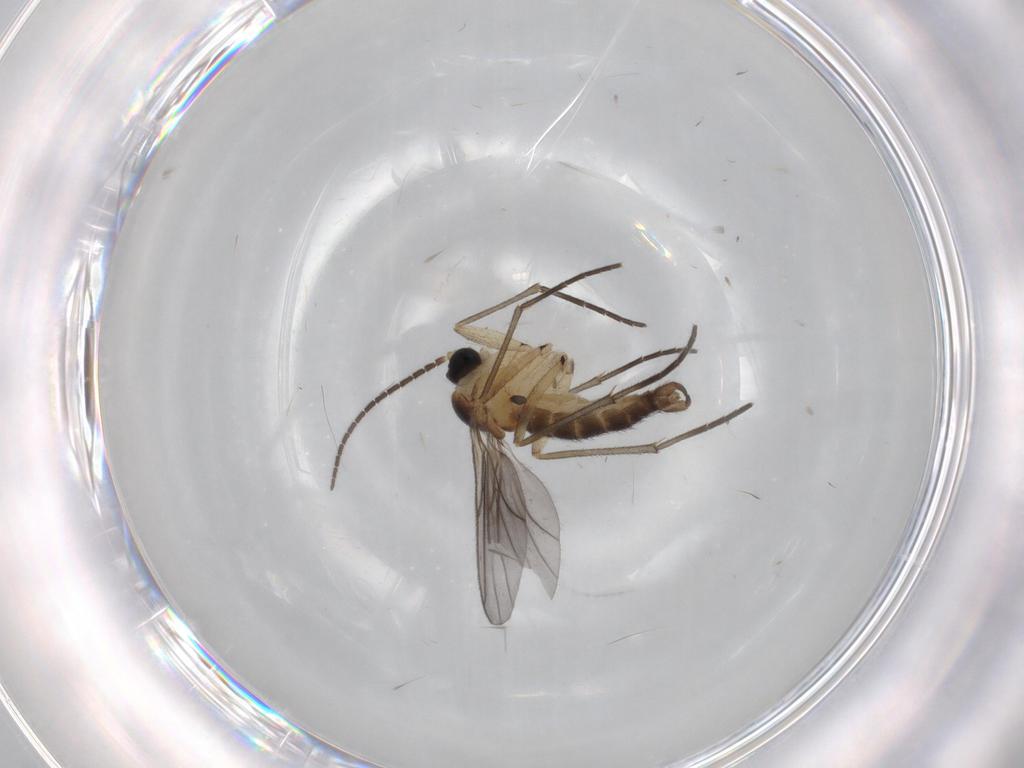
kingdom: Animalia
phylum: Arthropoda
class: Insecta
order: Diptera
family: Sciaridae
